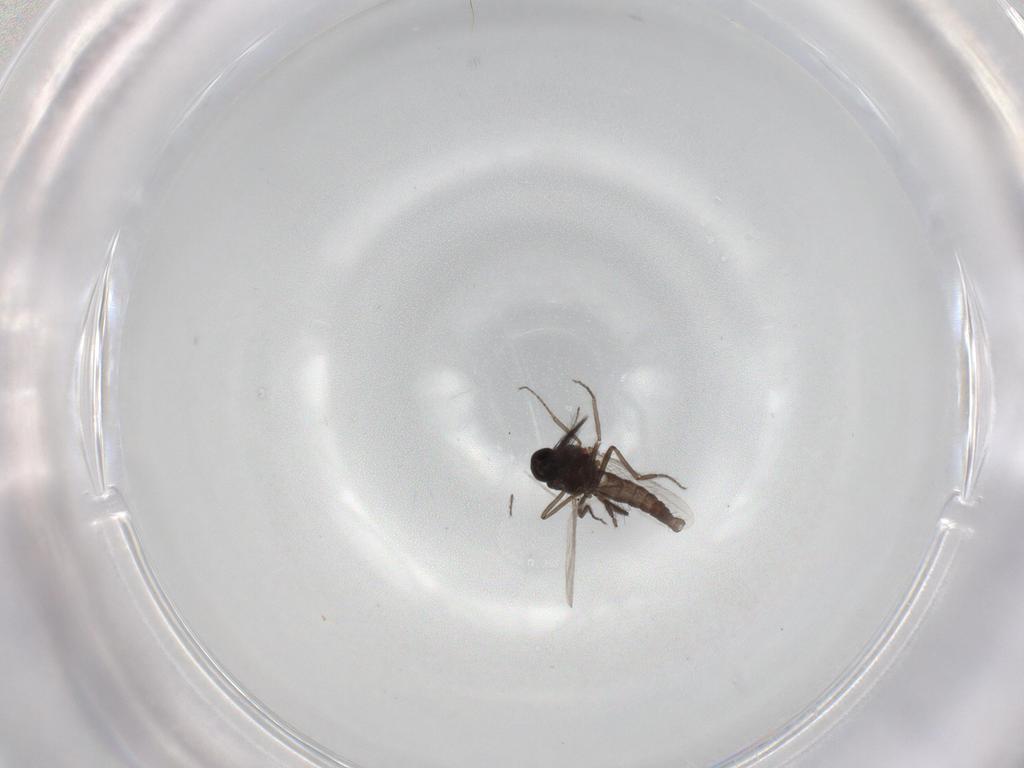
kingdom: Animalia
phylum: Arthropoda
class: Insecta
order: Diptera
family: Ceratopogonidae
